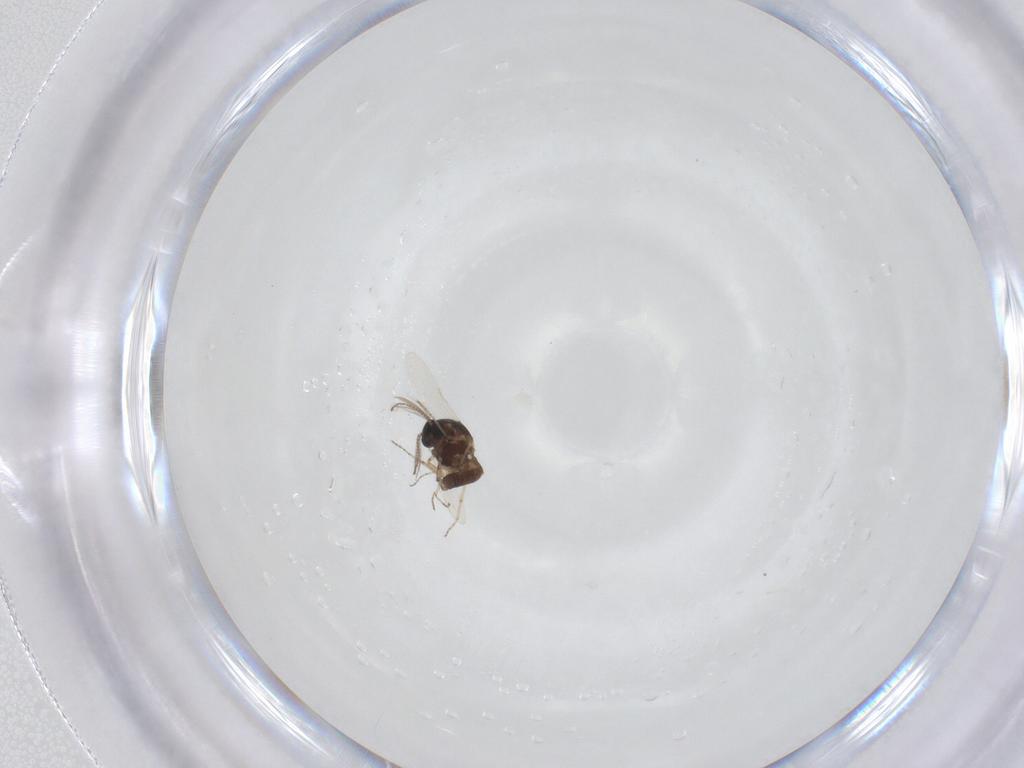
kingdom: Animalia
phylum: Arthropoda
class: Insecta
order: Diptera
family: Ceratopogonidae
